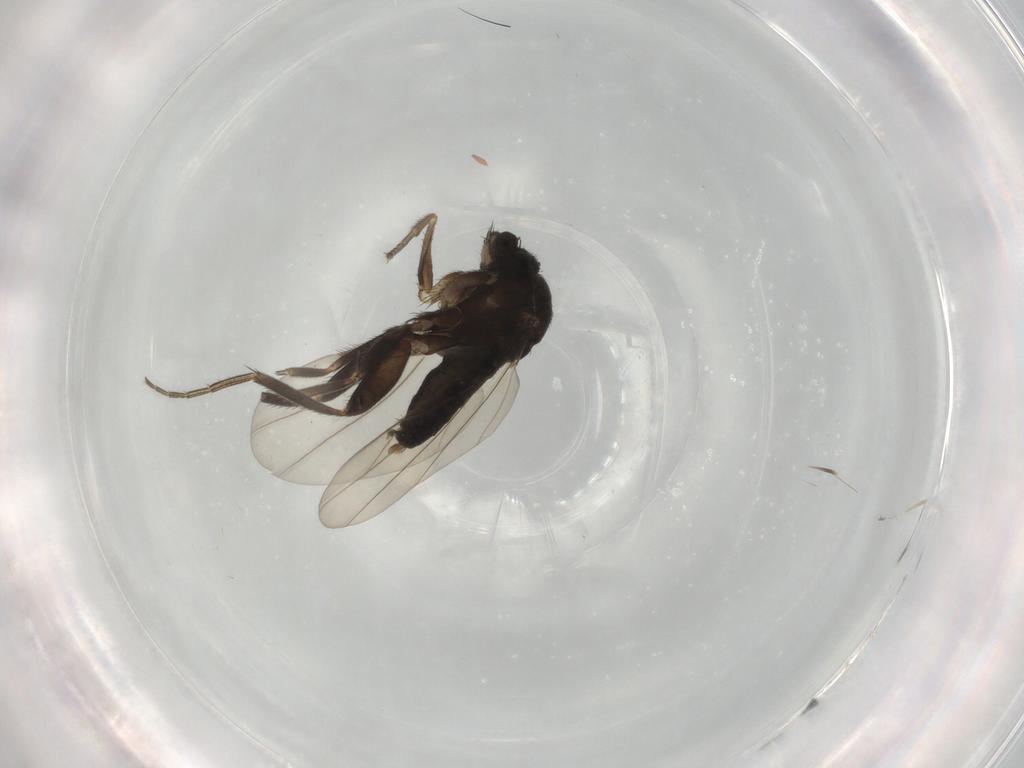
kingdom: Animalia
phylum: Arthropoda
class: Insecta
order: Diptera
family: Phoridae
